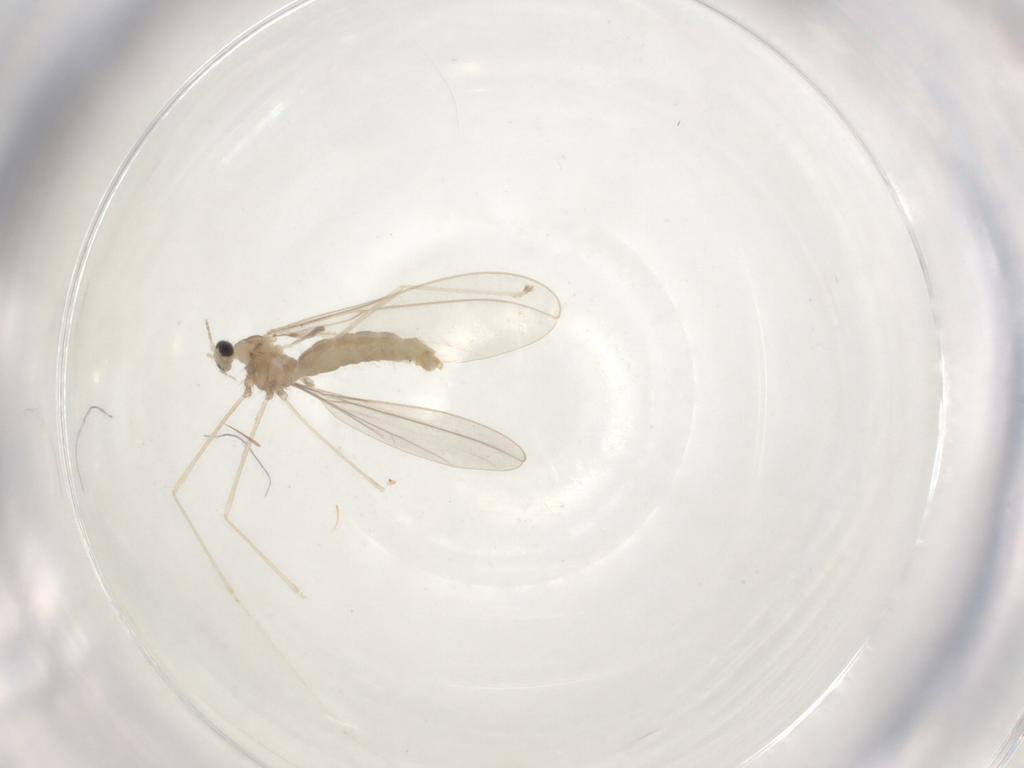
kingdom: Animalia
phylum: Arthropoda
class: Insecta
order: Diptera
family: Cecidomyiidae
